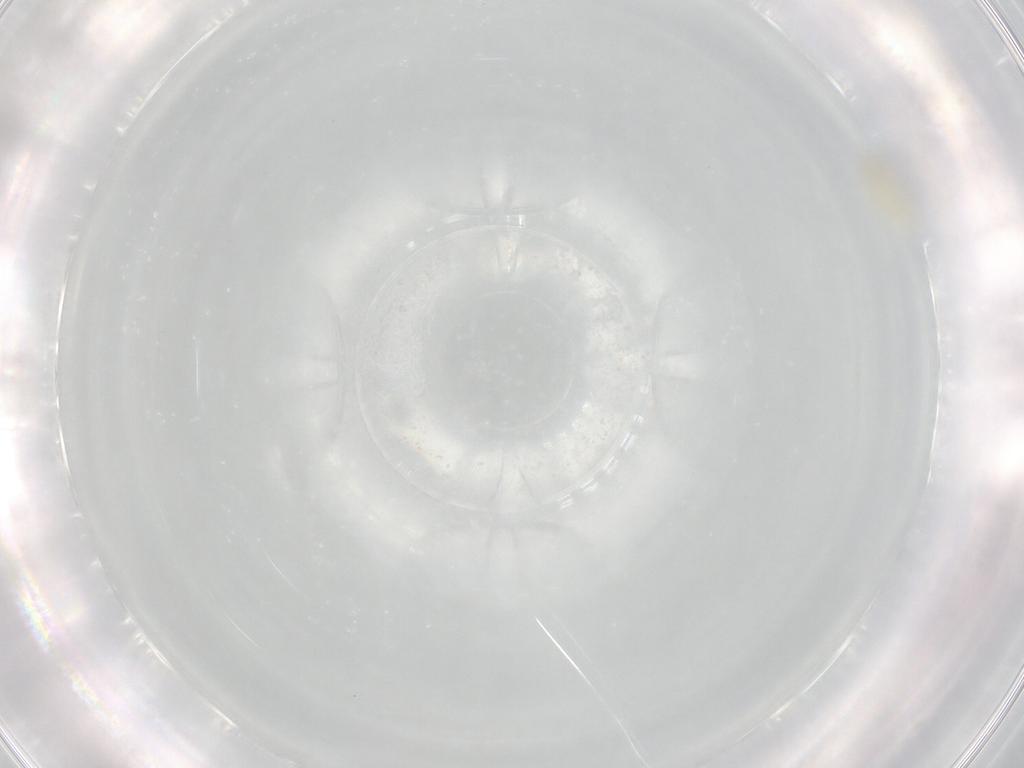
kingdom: Animalia
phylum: Arthropoda
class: Insecta
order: Hemiptera
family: Aleyrodidae
